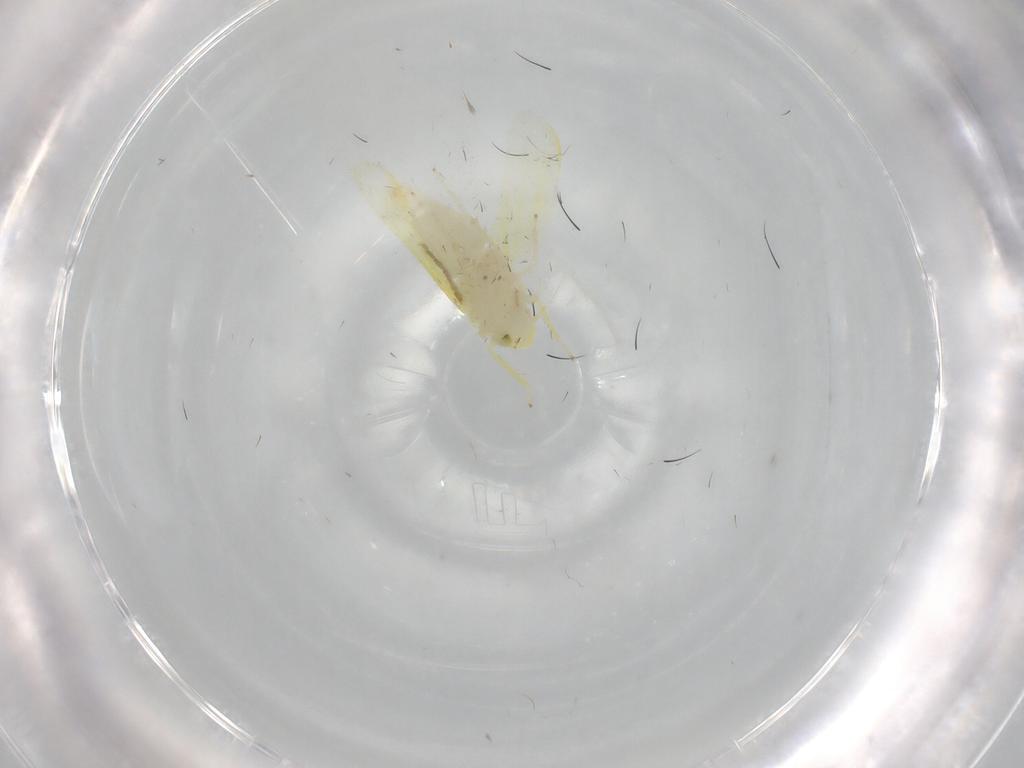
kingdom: Animalia
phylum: Arthropoda
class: Insecta
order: Hemiptera
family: Cicadellidae
